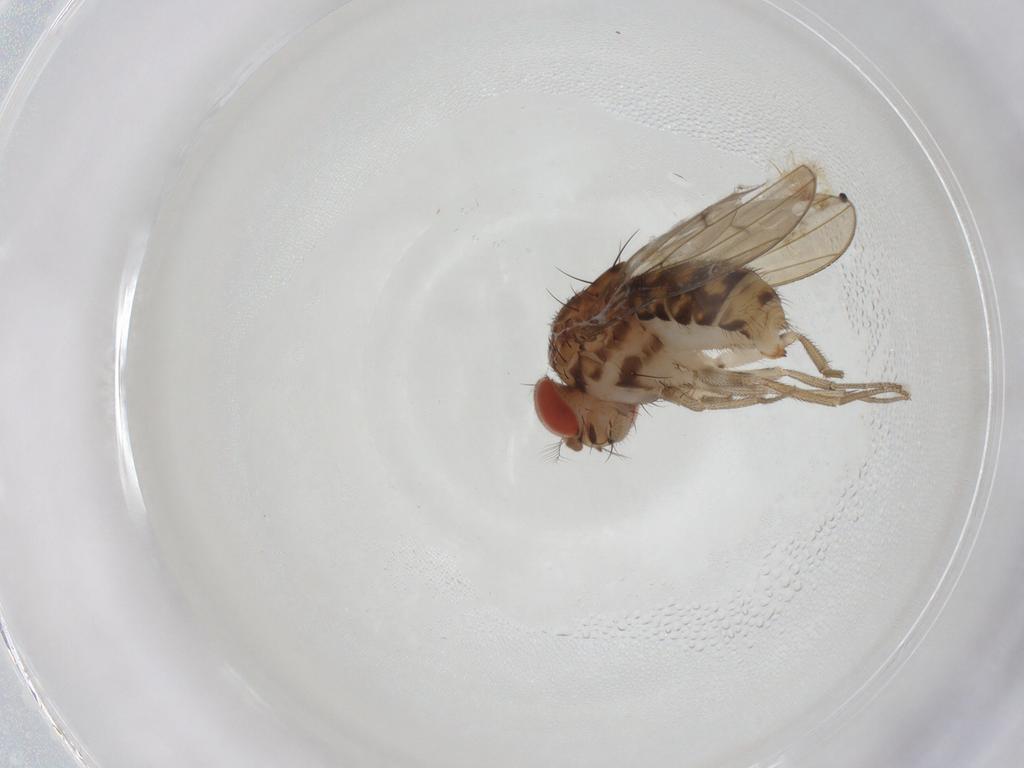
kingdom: Animalia
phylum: Arthropoda
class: Insecta
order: Diptera
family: Drosophilidae
